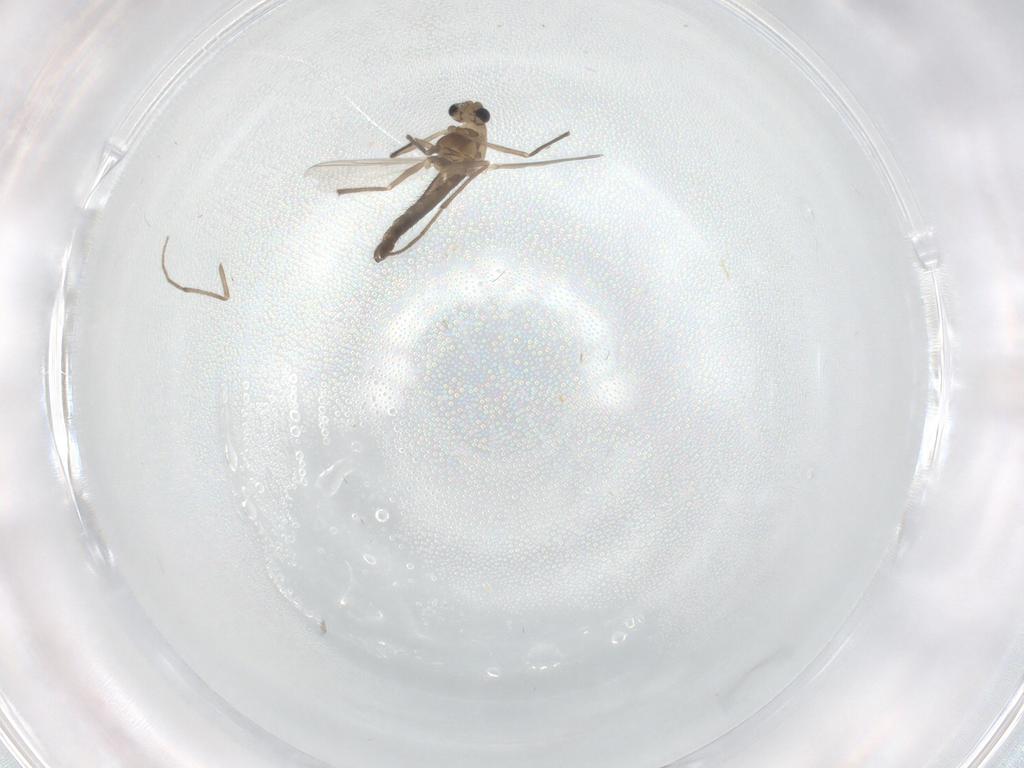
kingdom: Animalia
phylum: Arthropoda
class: Insecta
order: Diptera
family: Chironomidae
